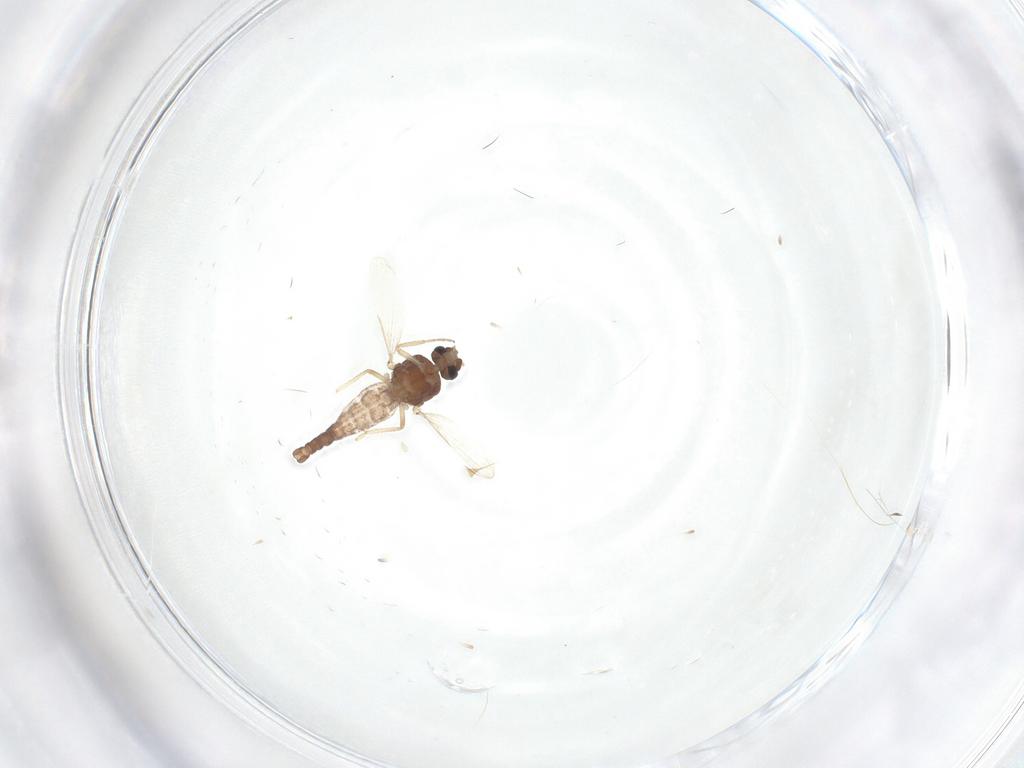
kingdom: Animalia
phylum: Arthropoda
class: Insecta
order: Diptera
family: Ceratopogonidae
